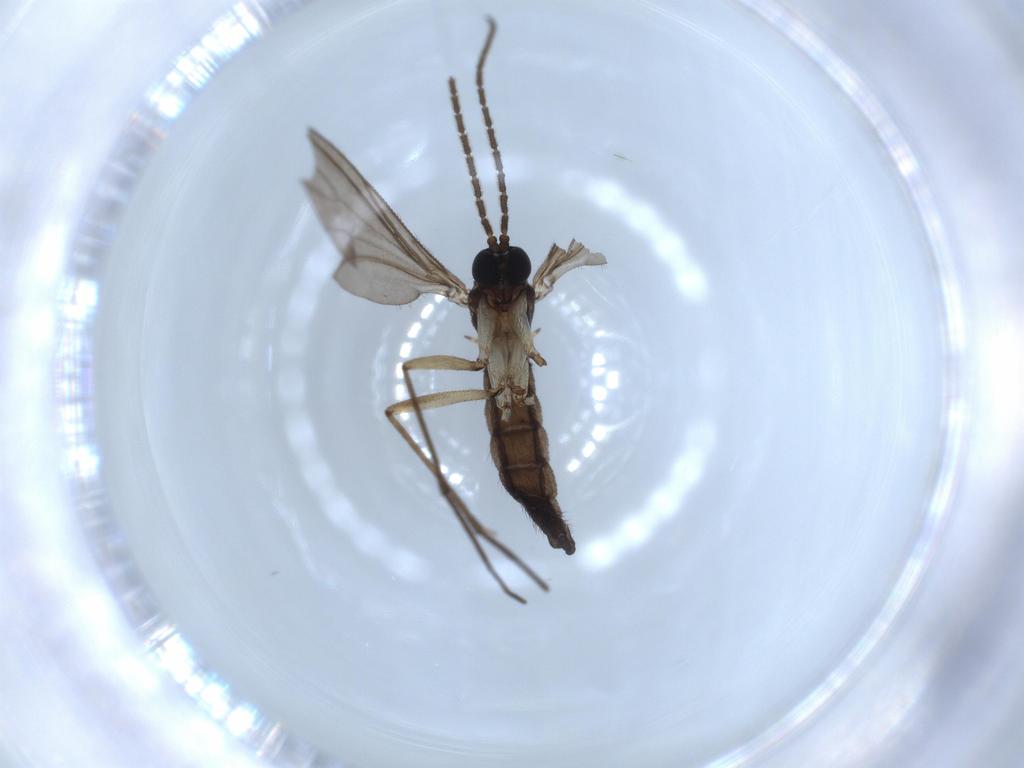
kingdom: Animalia
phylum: Arthropoda
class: Insecta
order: Diptera
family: Sciaridae
